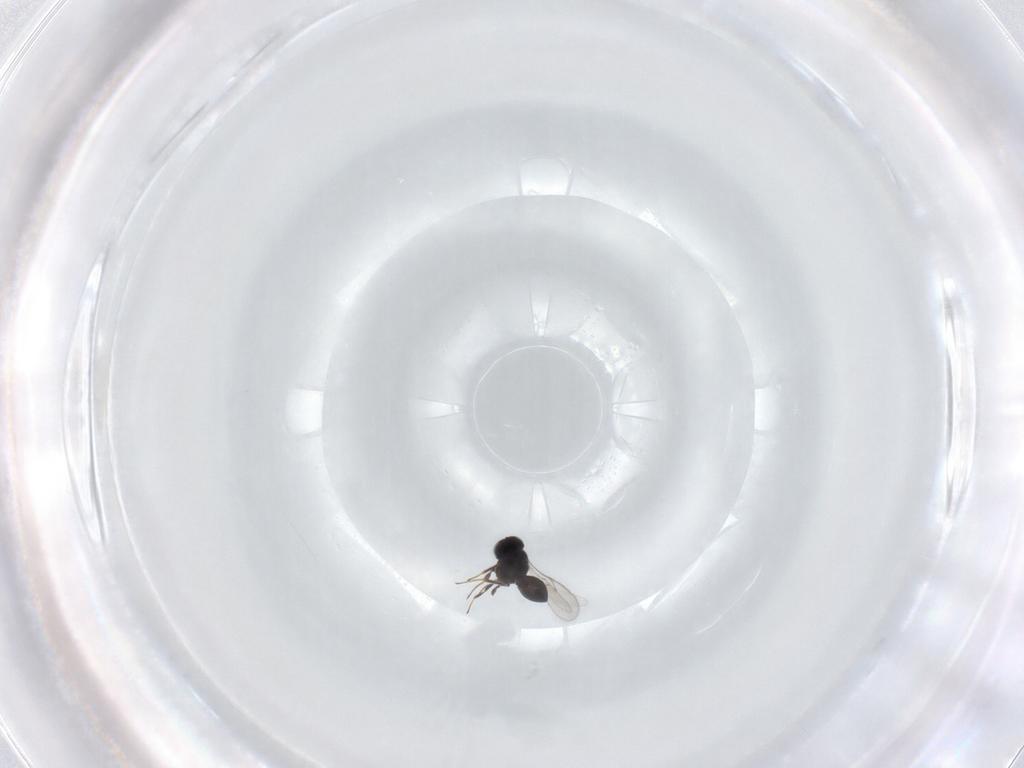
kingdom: Animalia
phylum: Arthropoda
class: Insecta
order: Hymenoptera
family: Scelionidae
